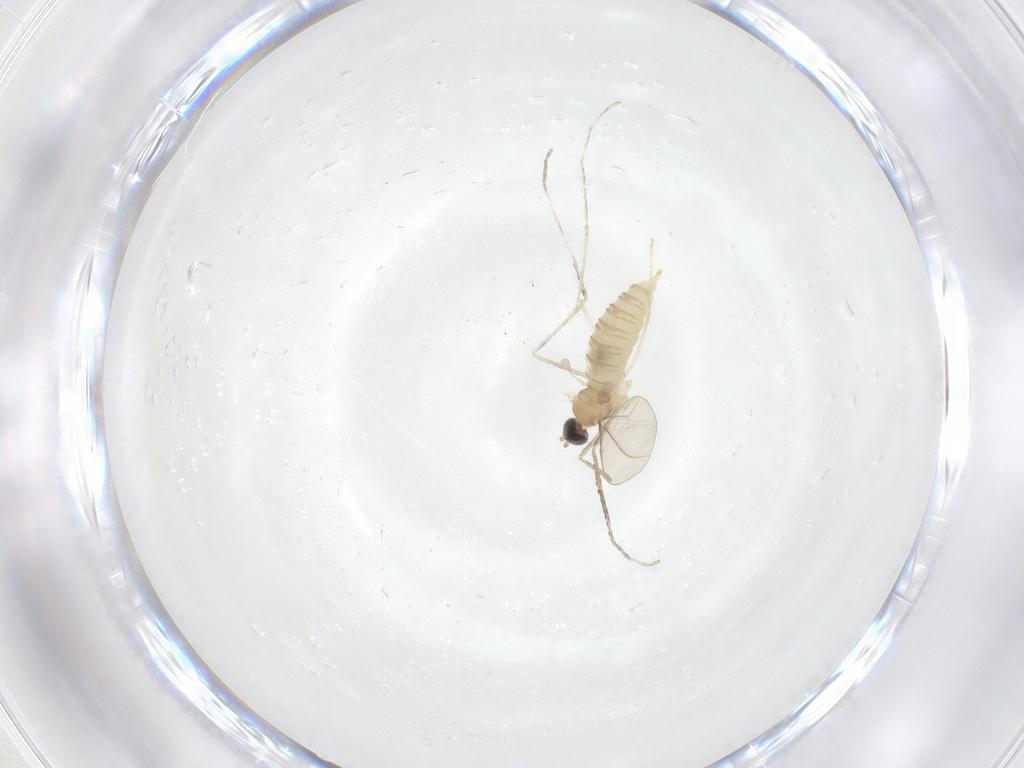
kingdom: Animalia
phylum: Arthropoda
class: Insecta
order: Diptera
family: Cecidomyiidae
